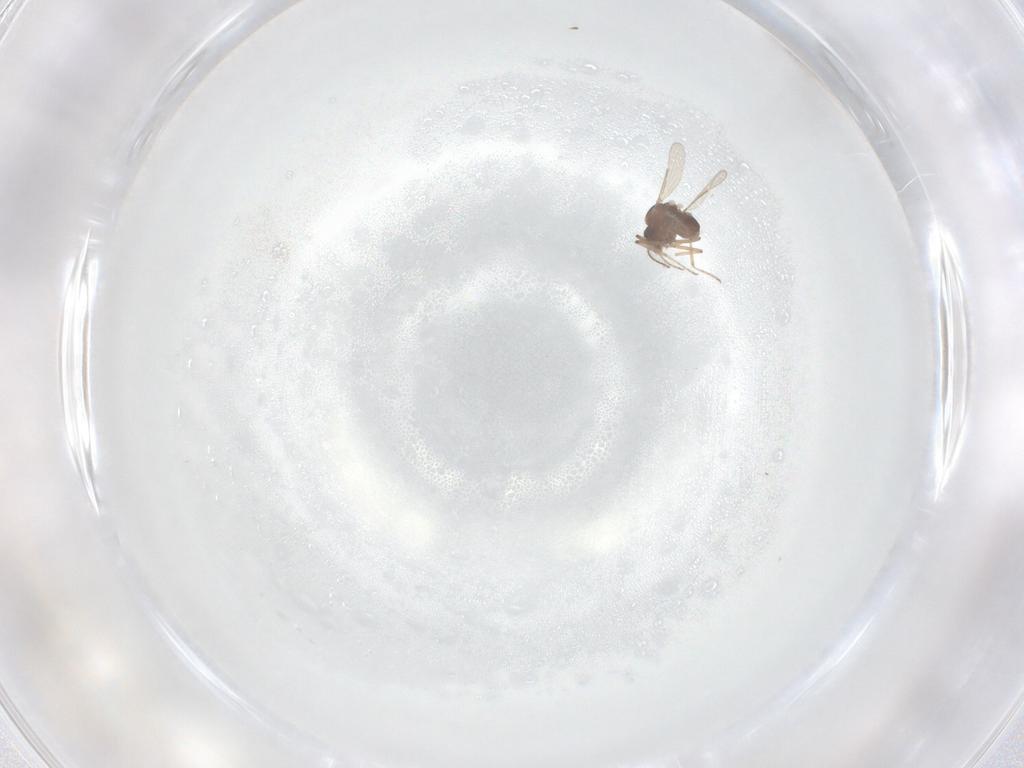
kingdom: Animalia
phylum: Arthropoda
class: Insecta
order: Diptera
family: Ceratopogonidae
